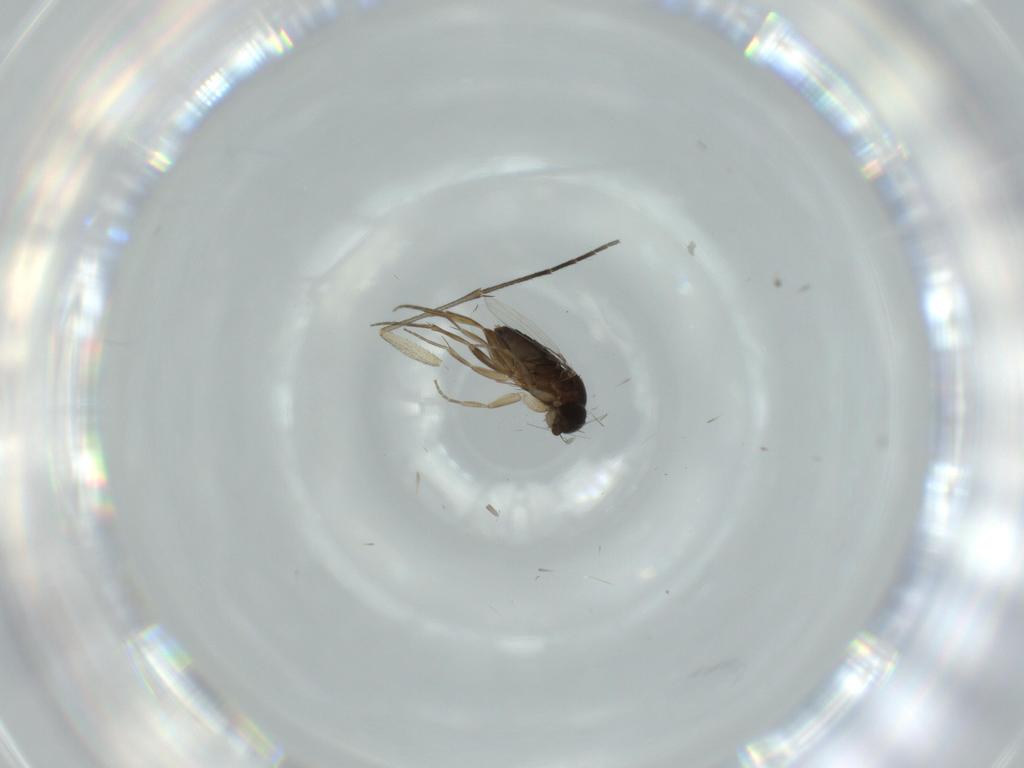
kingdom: Animalia
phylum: Arthropoda
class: Insecta
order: Diptera
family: Phoridae
